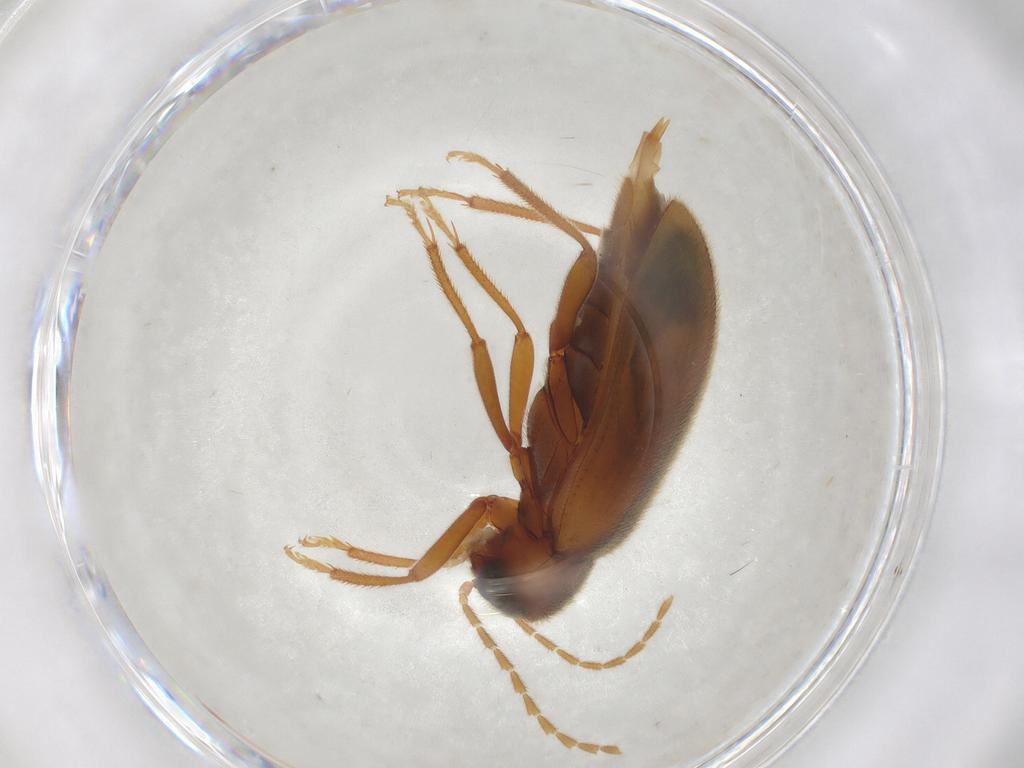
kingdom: Animalia
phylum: Arthropoda
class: Insecta
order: Coleoptera
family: Ptilodactylidae
